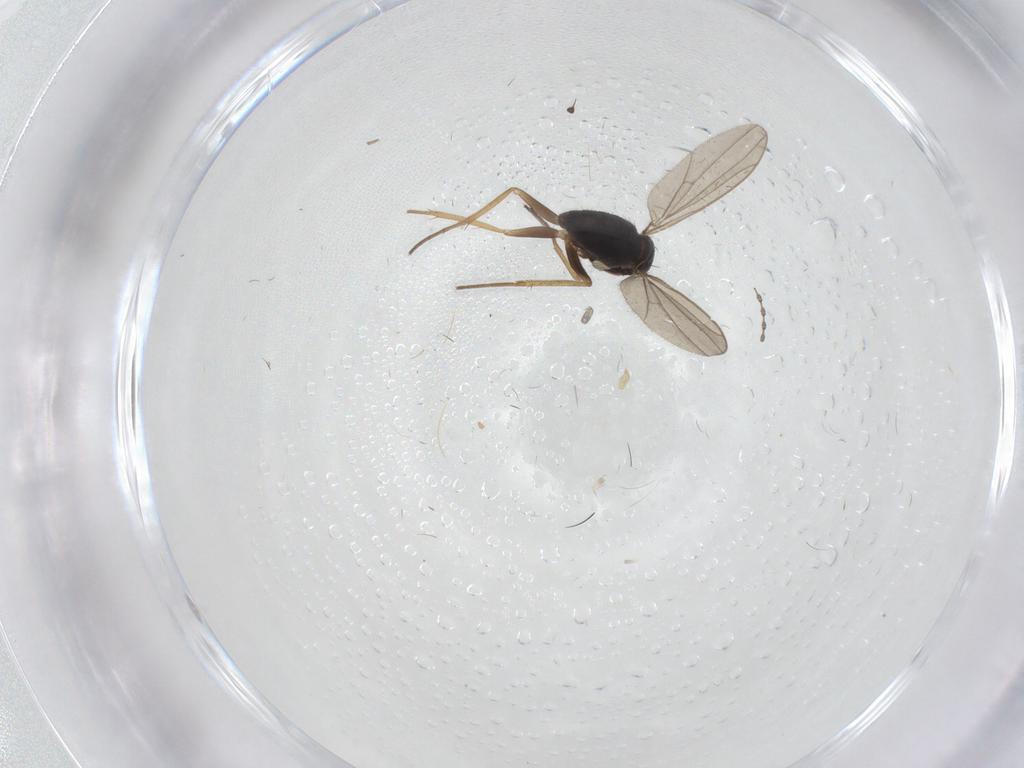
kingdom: Animalia
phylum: Arthropoda
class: Insecta
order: Diptera
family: Dolichopodidae
